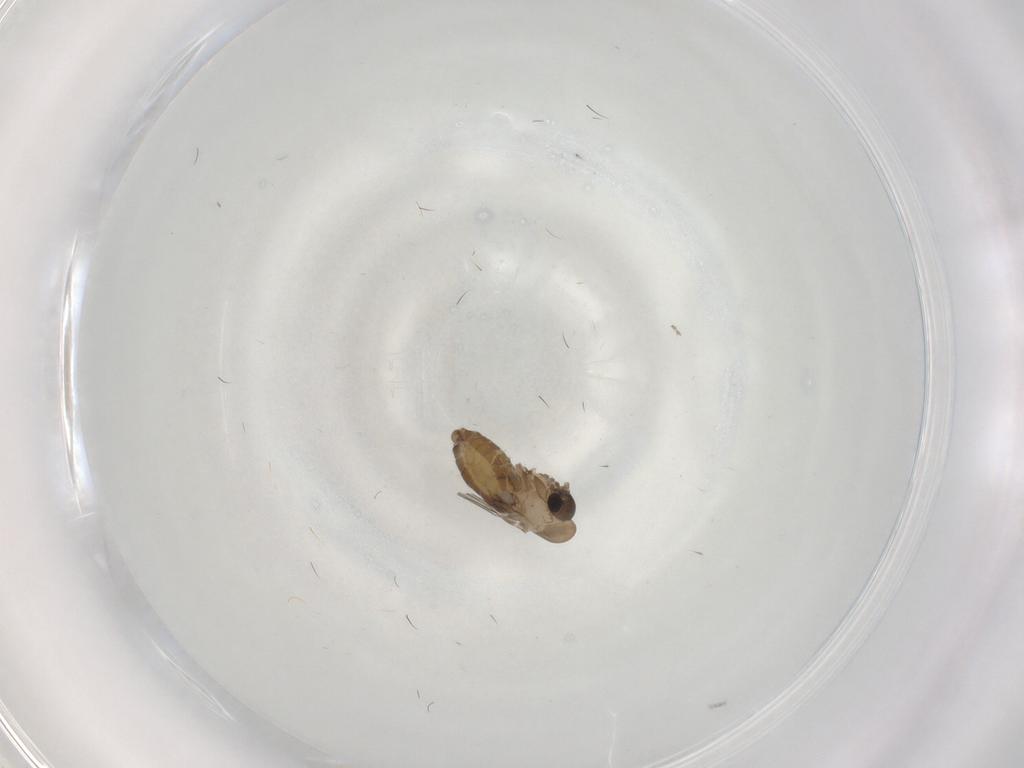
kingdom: Animalia
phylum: Arthropoda
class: Insecta
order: Diptera
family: Psychodidae
